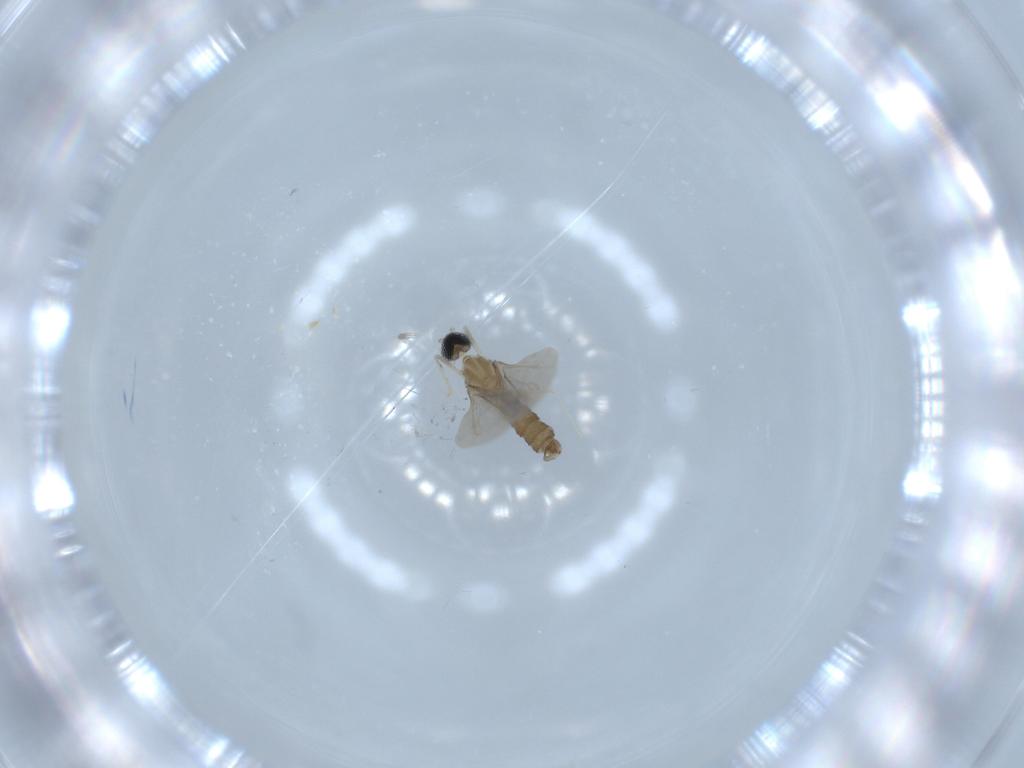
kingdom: Animalia
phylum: Arthropoda
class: Insecta
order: Diptera
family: Cecidomyiidae
